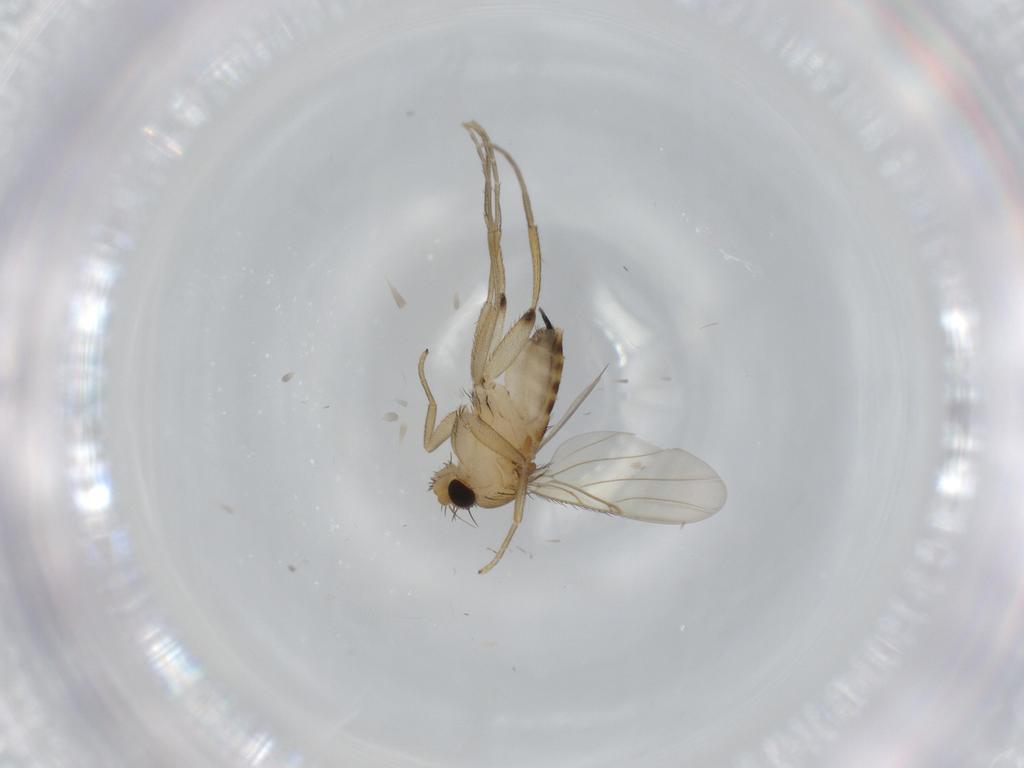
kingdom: Animalia
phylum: Arthropoda
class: Insecta
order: Diptera
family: Phoridae
